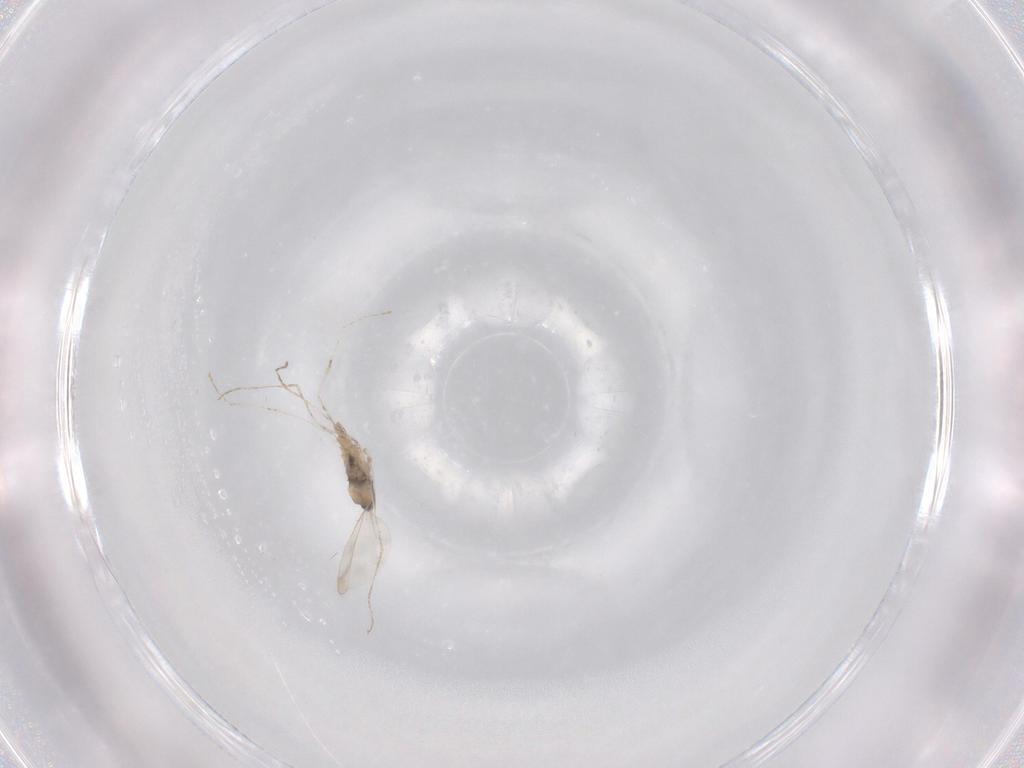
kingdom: Animalia
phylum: Arthropoda
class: Insecta
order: Diptera
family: Cecidomyiidae
